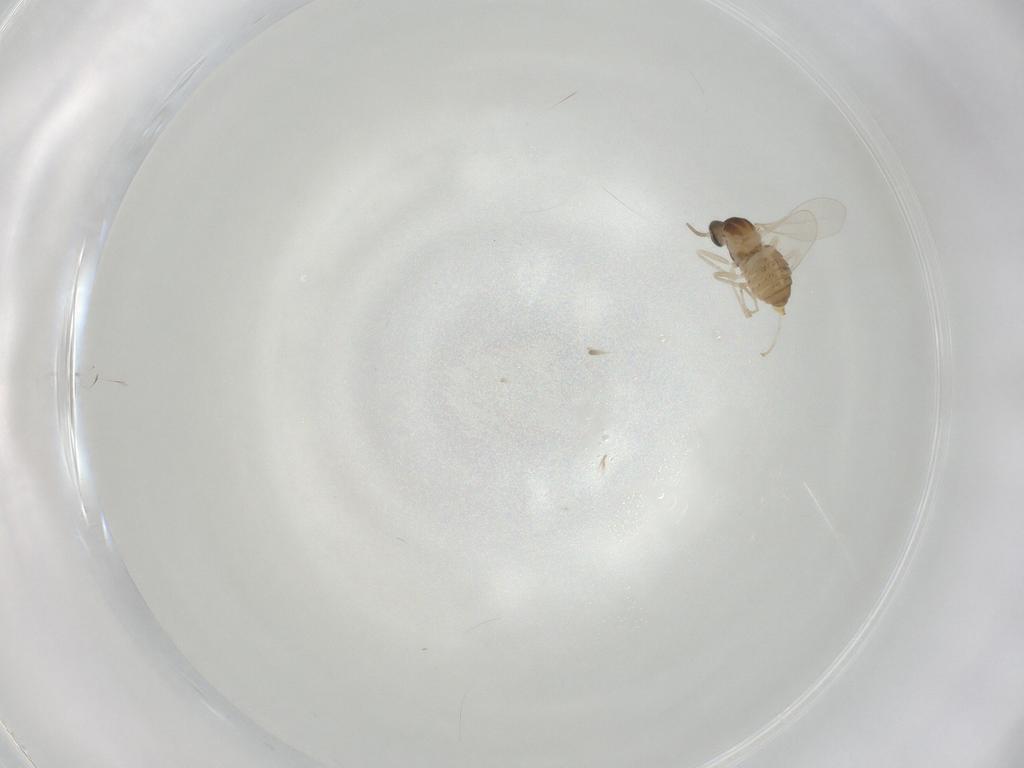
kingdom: Animalia
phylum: Arthropoda
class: Insecta
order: Diptera
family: Cecidomyiidae
